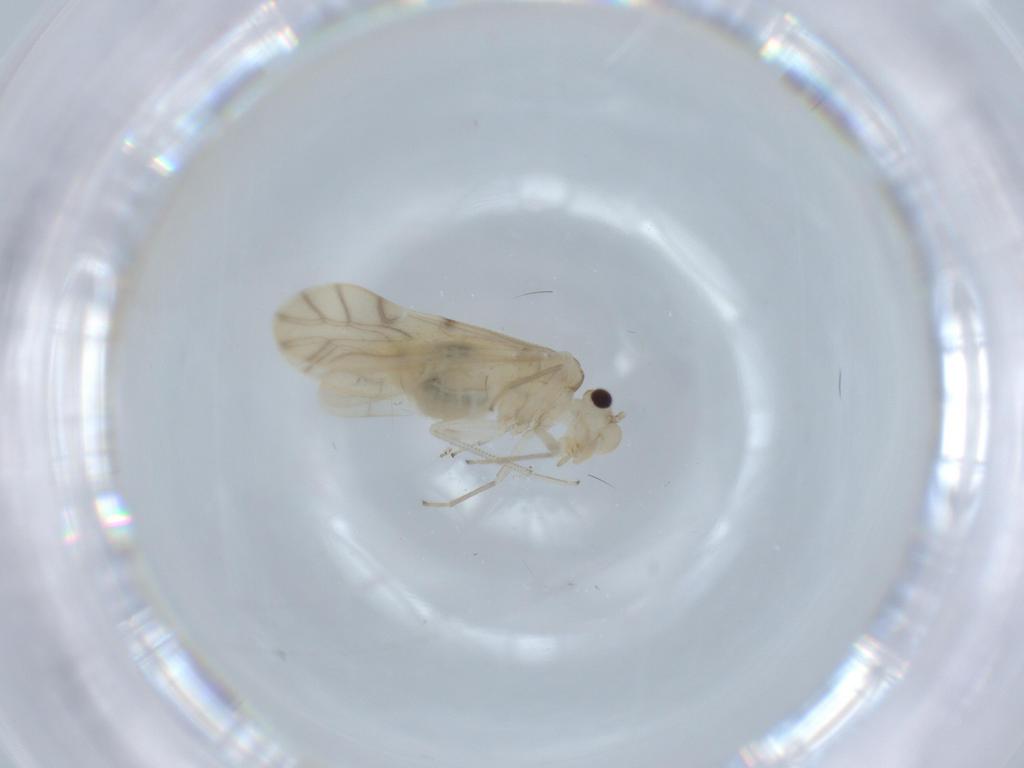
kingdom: Animalia
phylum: Arthropoda
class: Insecta
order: Psocodea
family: Caeciliusidae
